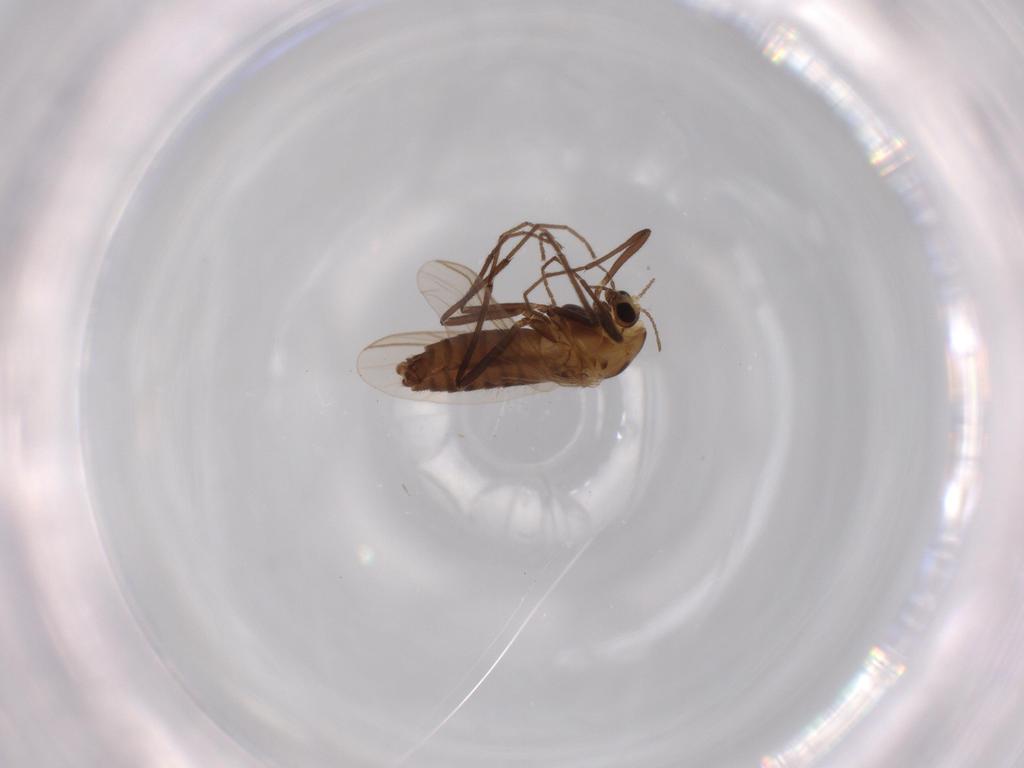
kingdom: Animalia
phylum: Arthropoda
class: Insecta
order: Diptera
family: Chironomidae
